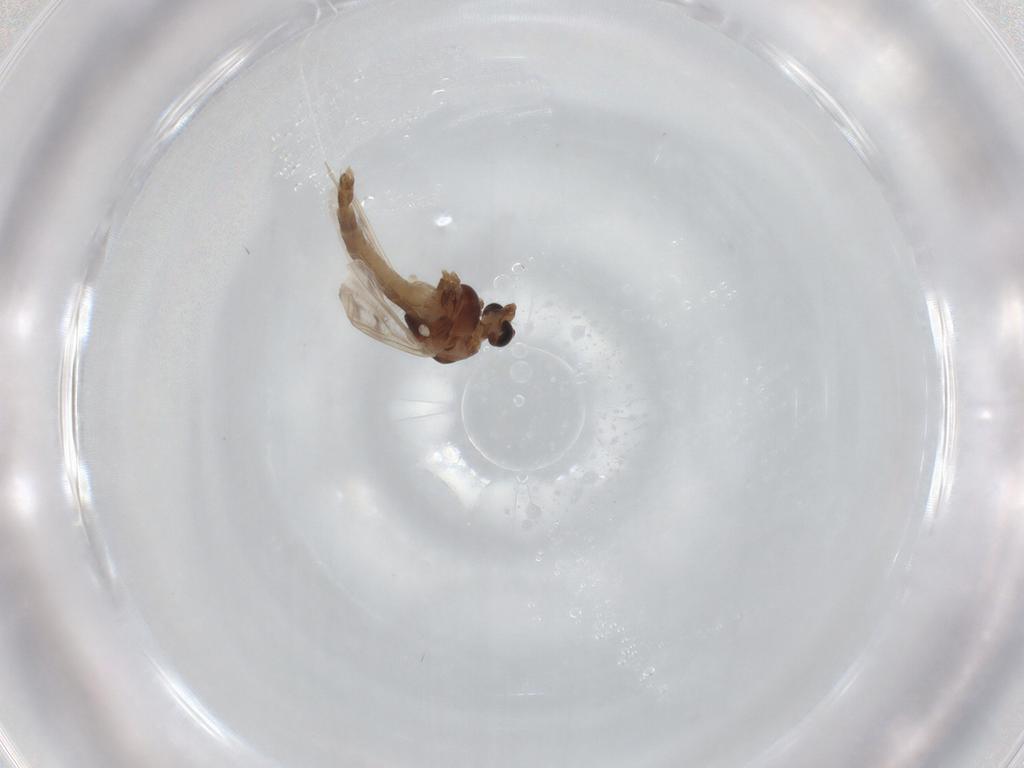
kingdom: Animalia
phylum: Arthropoda
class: Insecta
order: Diptera
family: Chironomidae
